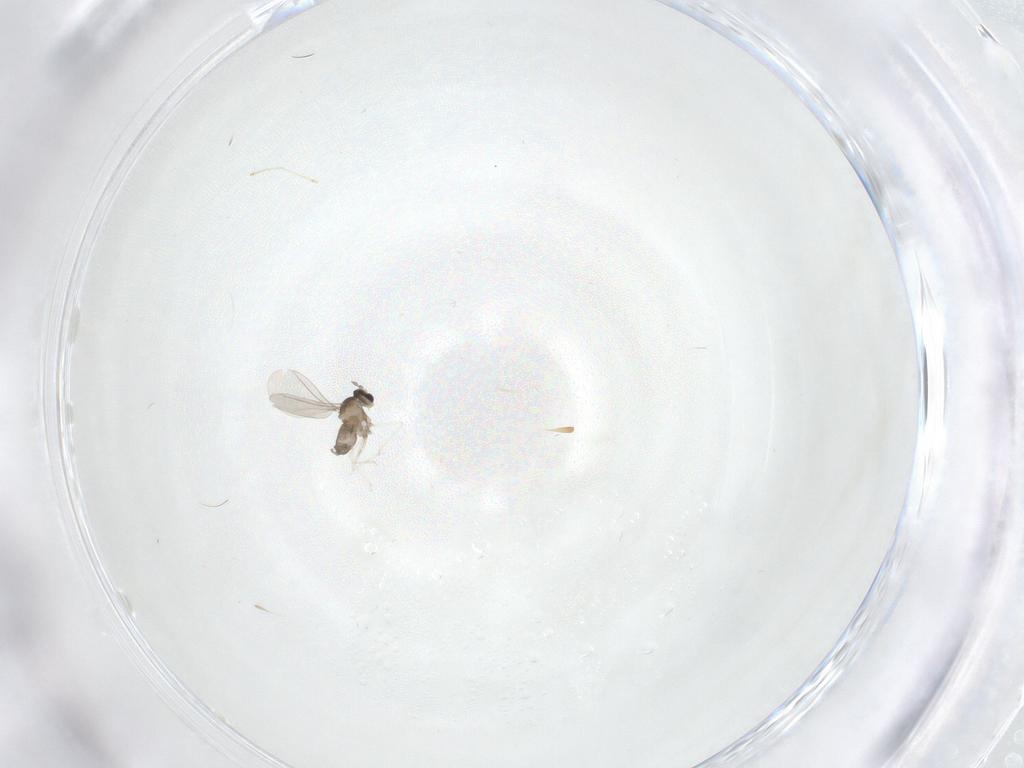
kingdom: Animalia
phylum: Arthropoda
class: Insecta
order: Diptera
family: Cecidomyiidae
